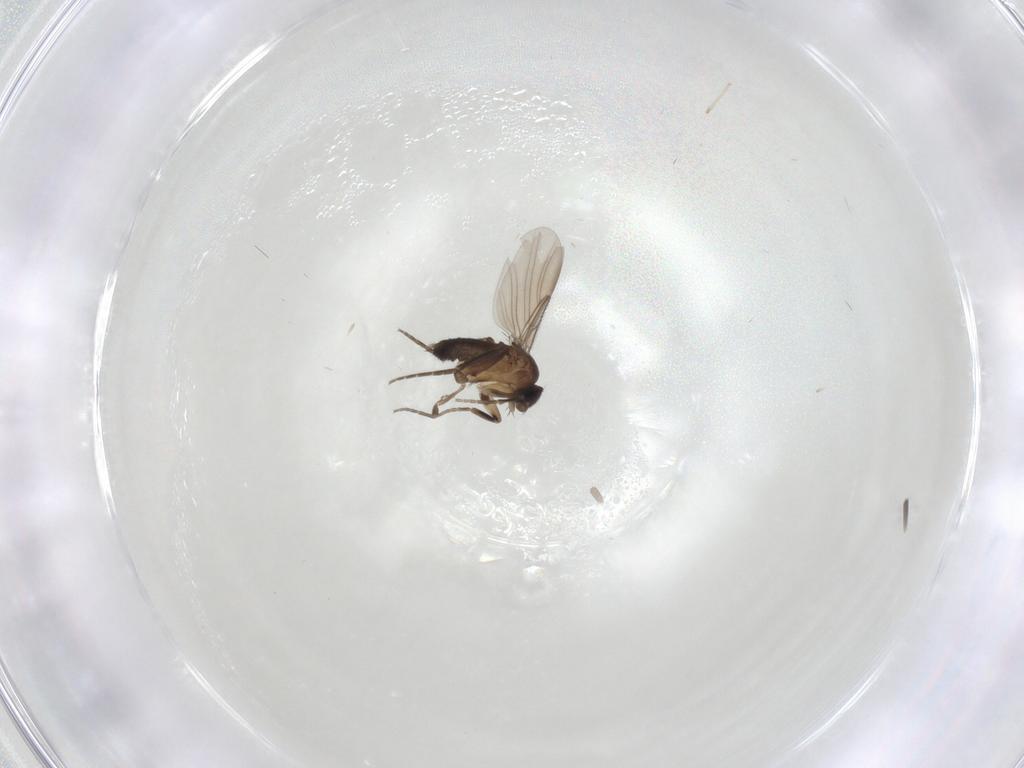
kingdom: Animalia
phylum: Arthropoda
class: Insecta
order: Diptera
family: Phoridae
